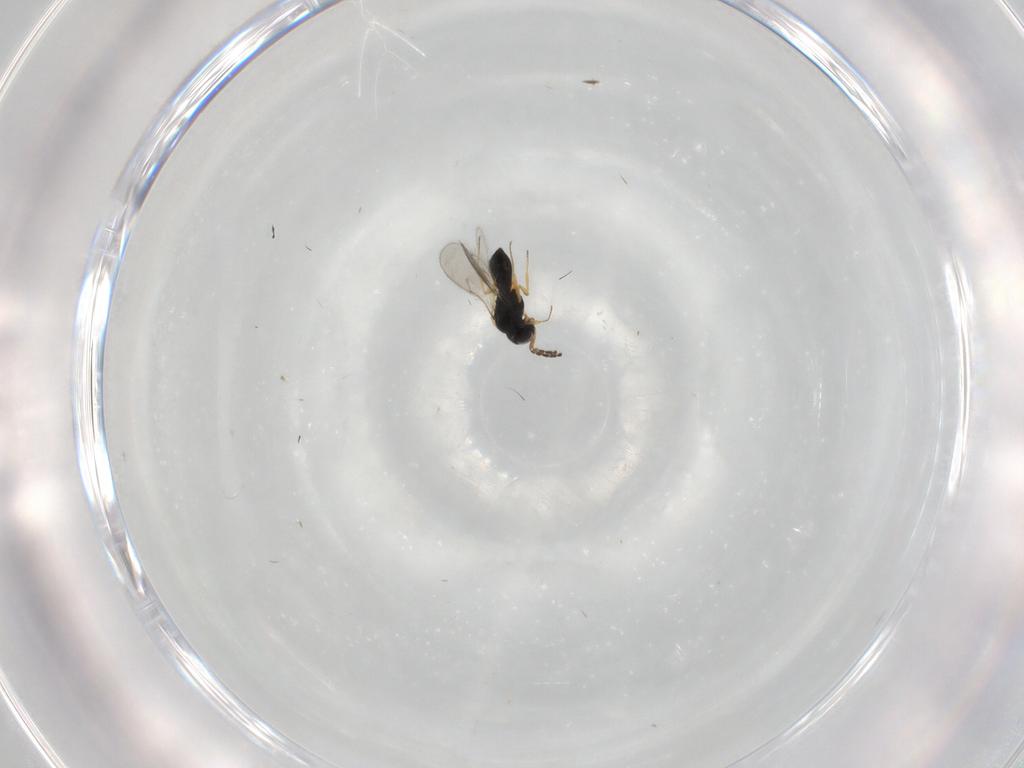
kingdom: Animalia
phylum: Arthropoda
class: Insecta
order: Hymenoptera
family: Scelionidae
